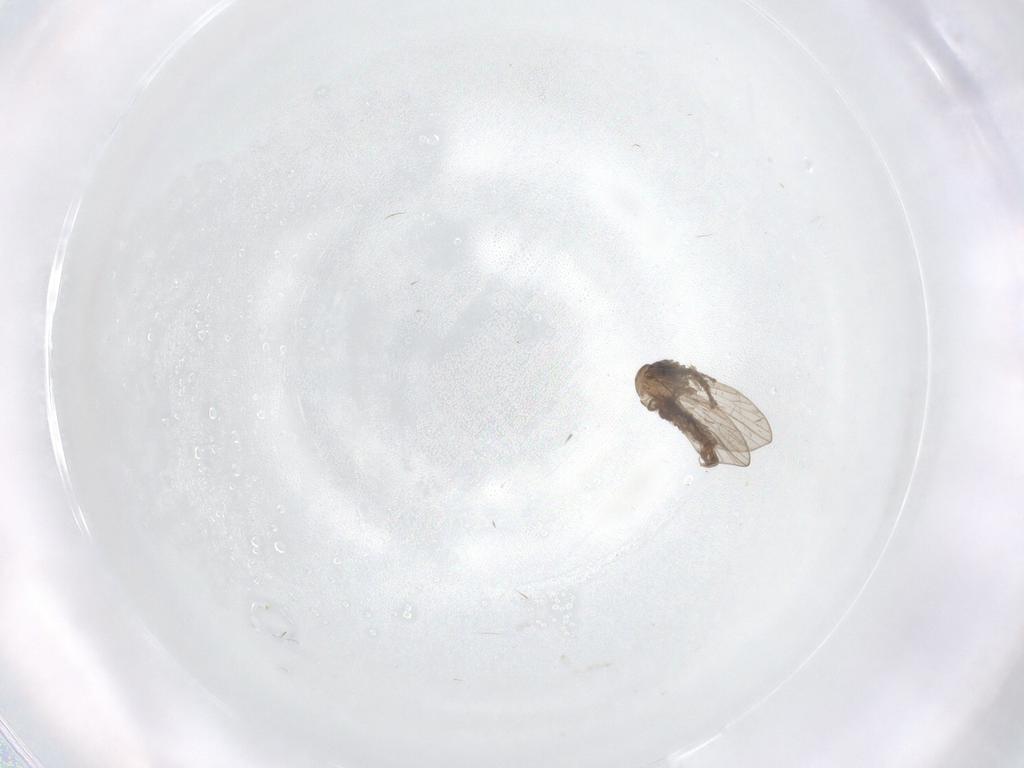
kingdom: Animalia
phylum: Arthropoda
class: Insecta
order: Diptera
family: Psychodidae
